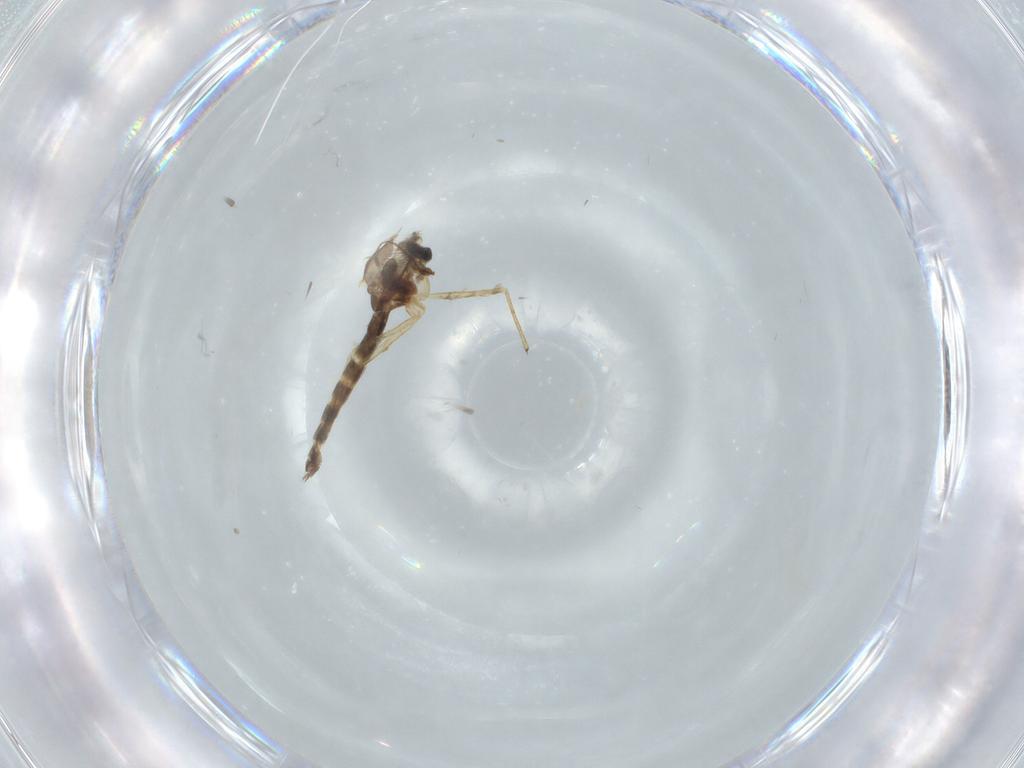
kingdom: Animalia
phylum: Arthropoda
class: Insecta
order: Diptera
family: Chironomidae
